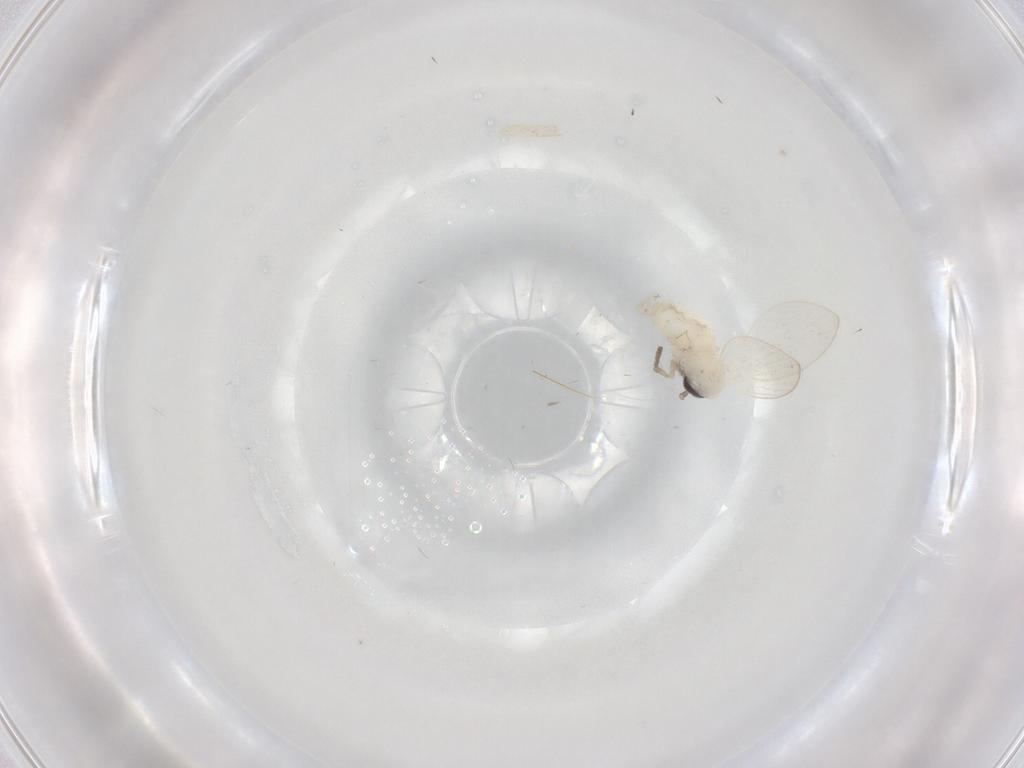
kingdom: Animalia
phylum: Arthropoda
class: Insecta
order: Diptera
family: Psychodidae
